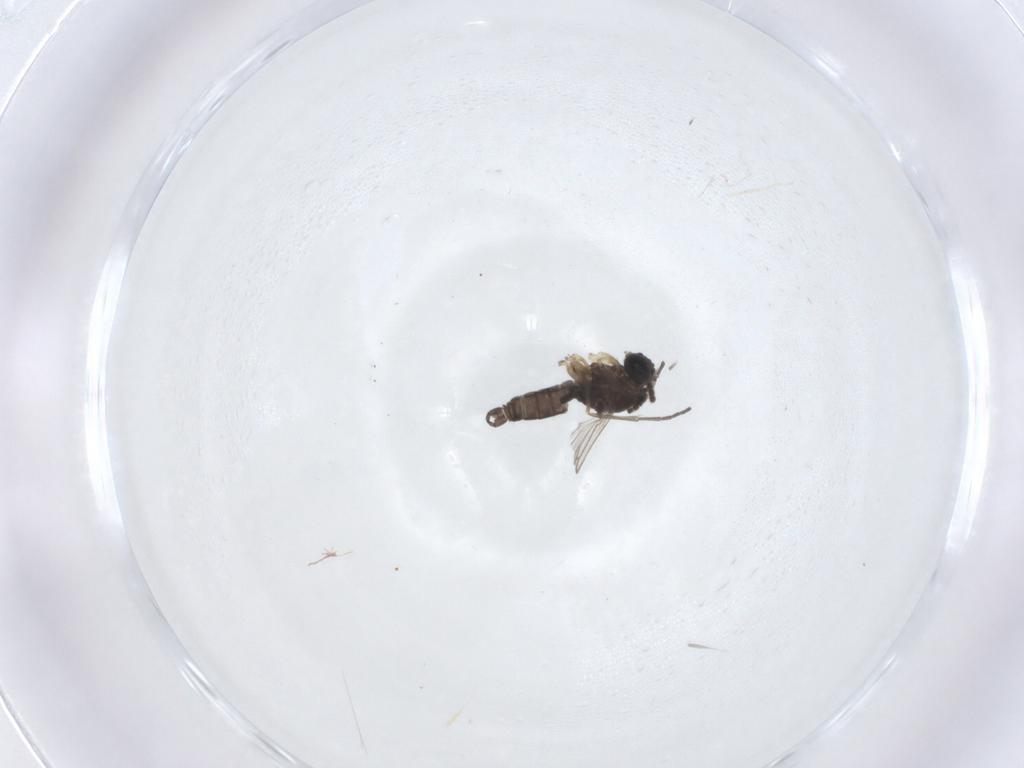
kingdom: Animalia
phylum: Arthropoda
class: Insecta
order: Diptera
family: Sciaridae
